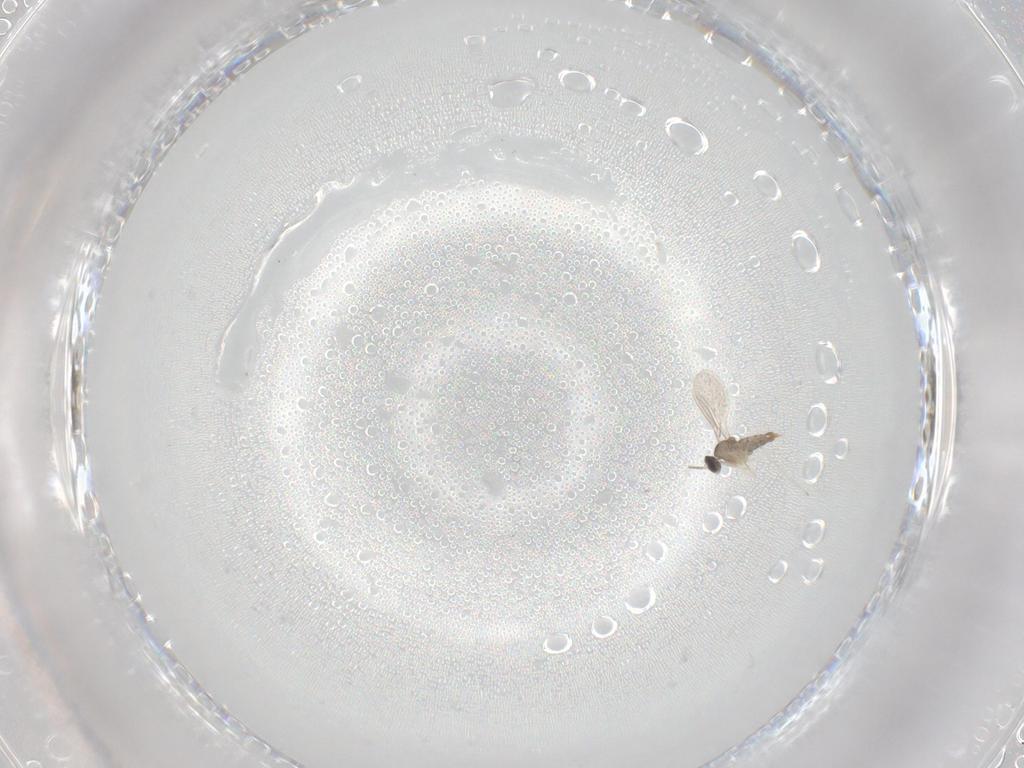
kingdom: Animalia
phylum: Arthropoda
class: Insecta
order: Diptera
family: Cecidomyiidae
